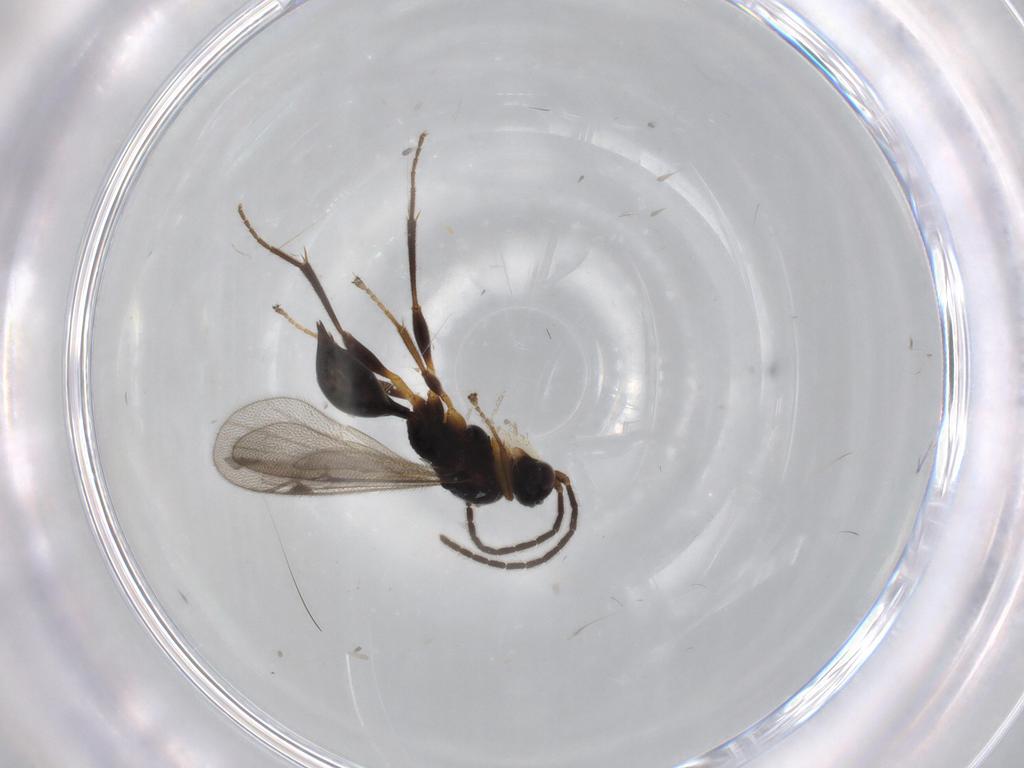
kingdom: Animalia
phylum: Arthropoda
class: Insecta
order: Hymenoptera
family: Proctotrupidae
